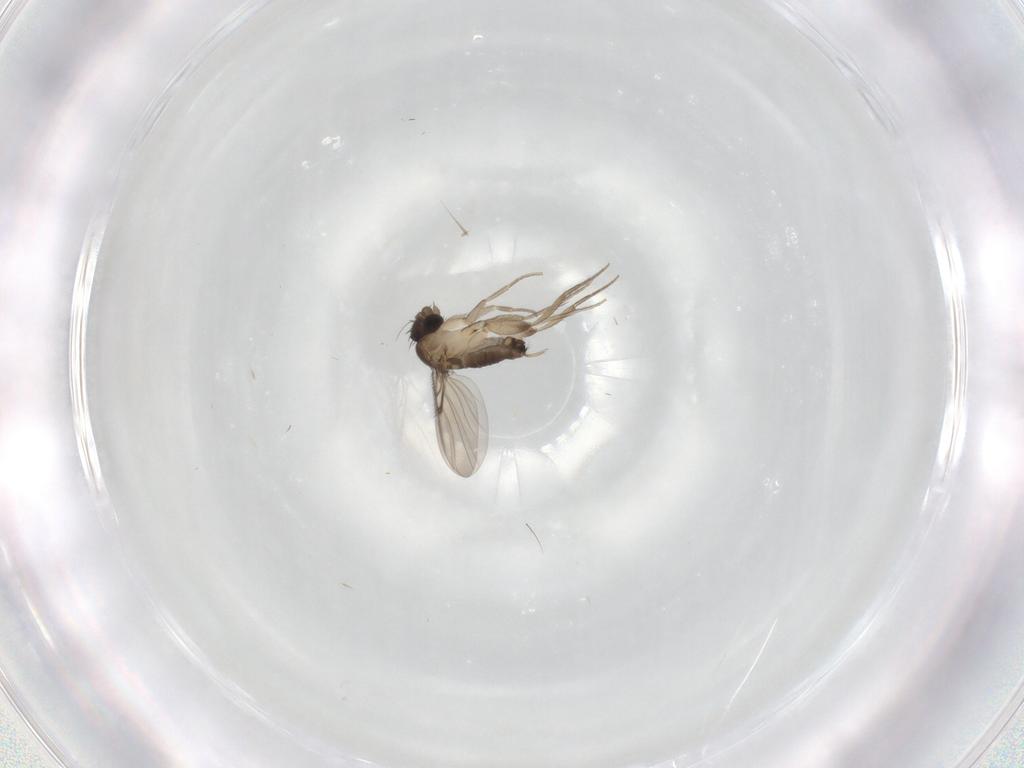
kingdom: Animalia
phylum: Arthropoda
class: Insecta
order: Diptera
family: Phoridae
